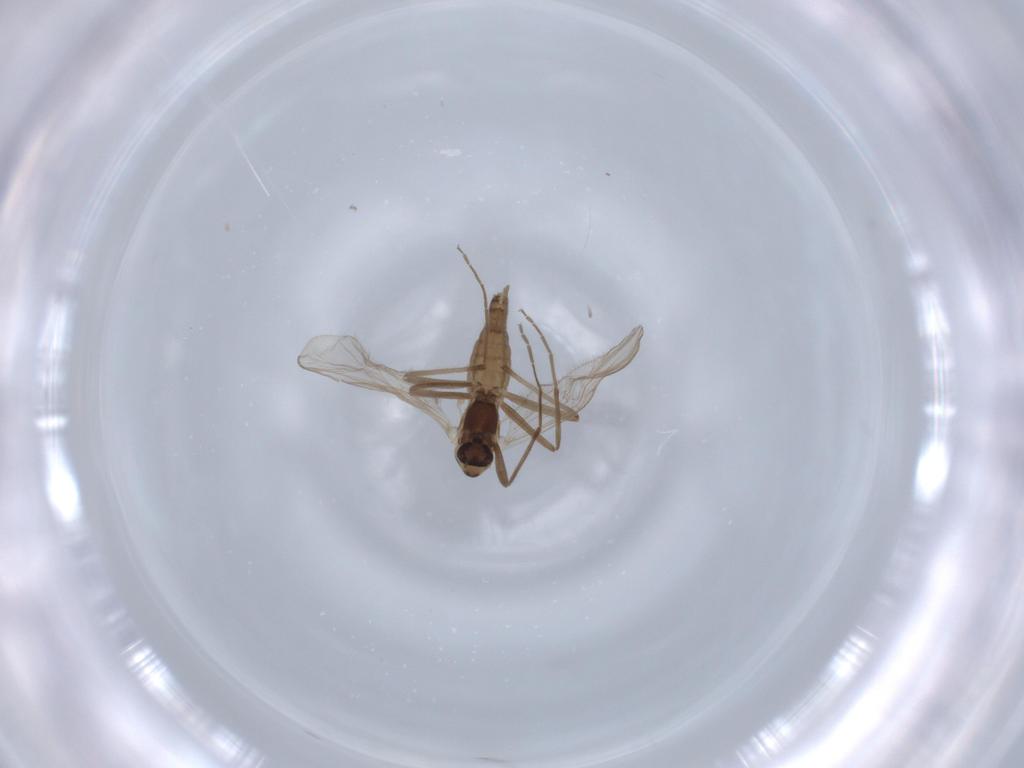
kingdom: Animalia
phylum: Arthropoda
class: Insecta
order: Diptera
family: Chironomidae
